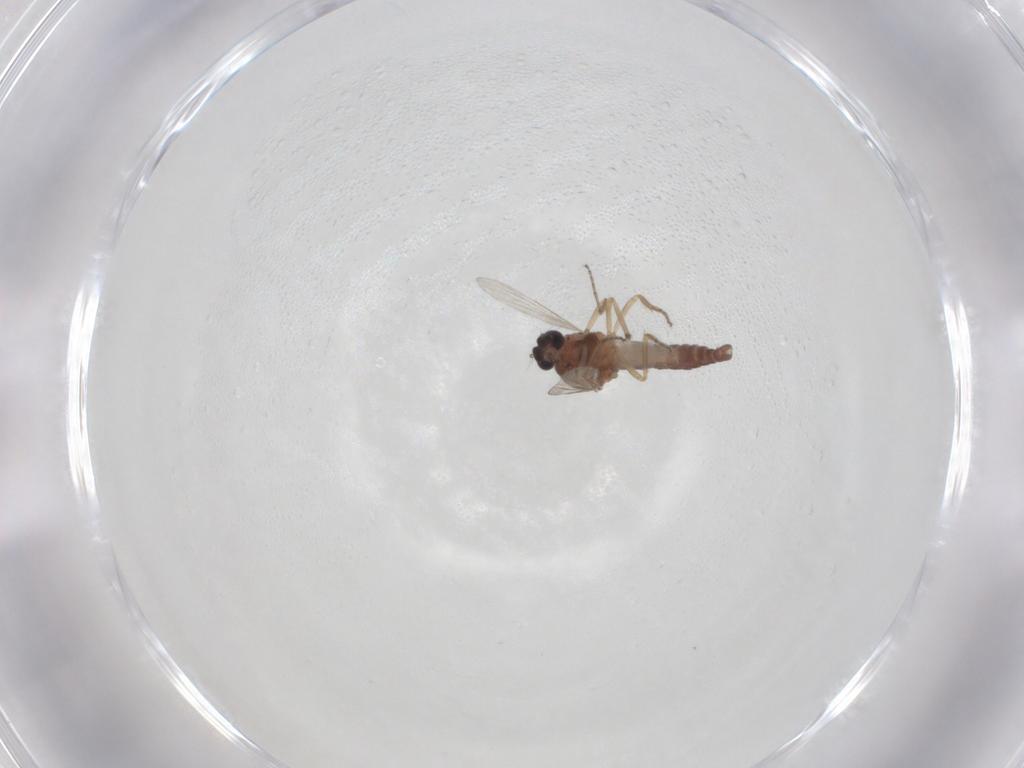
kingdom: Animalia
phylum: Arthropoda
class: Insecta
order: Diptera
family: Ceratopogonidae
